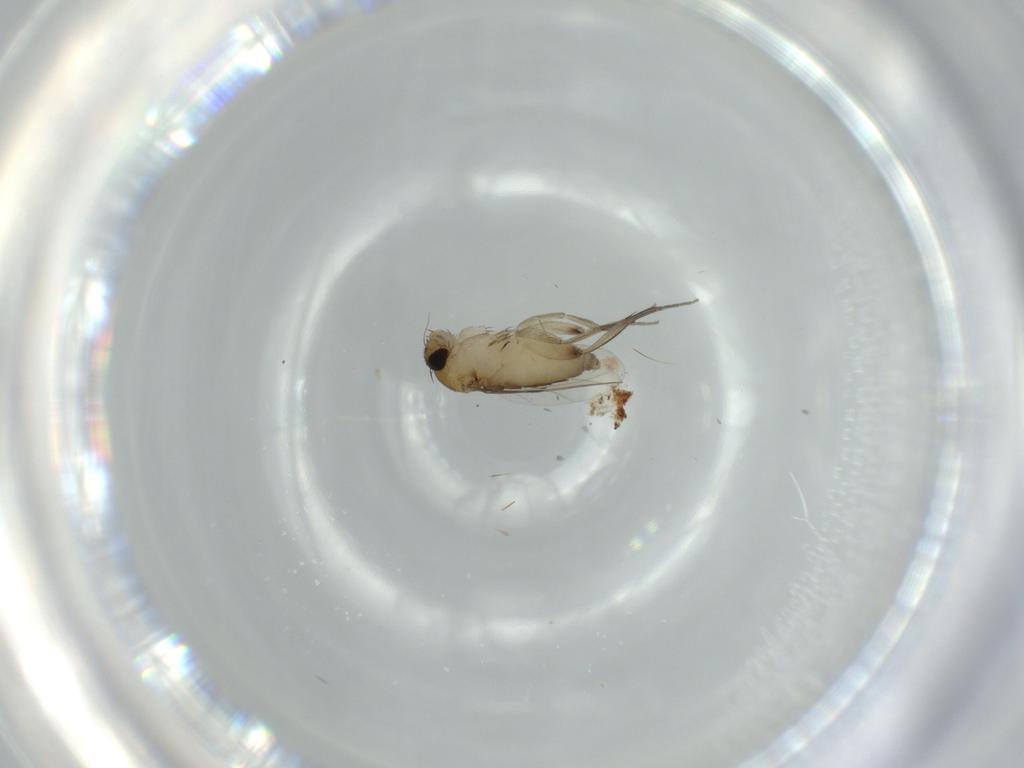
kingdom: Animalia
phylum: Arthropoda
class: Insecta
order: Diptera
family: Phoridae
